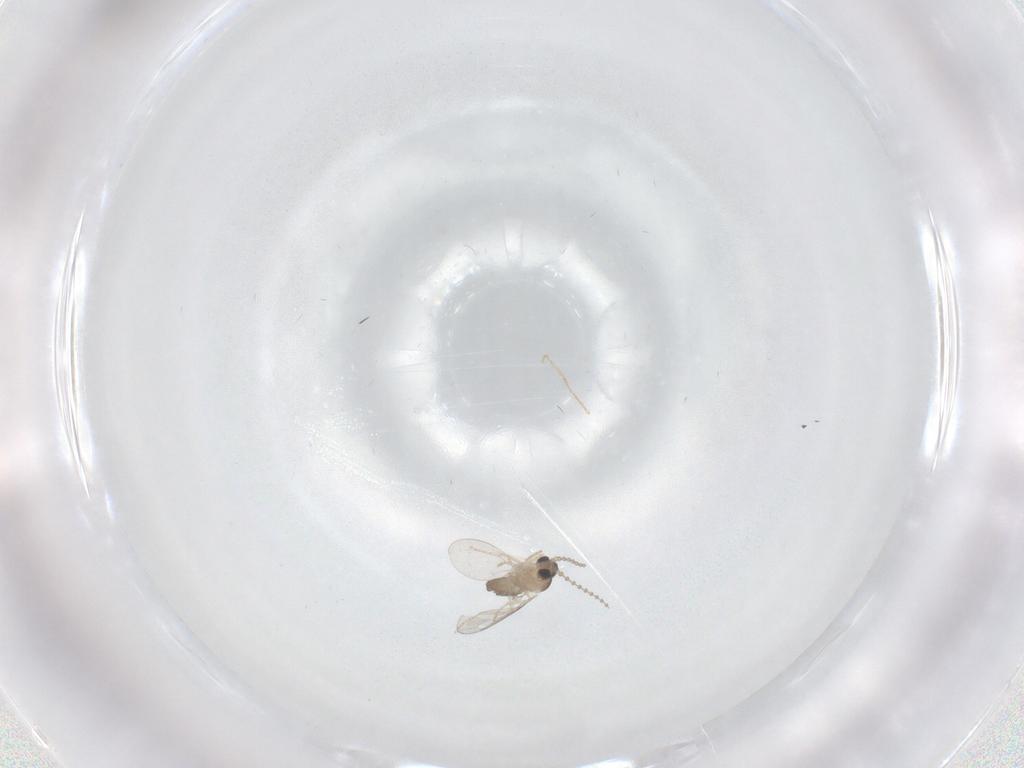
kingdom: Animalia
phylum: Arthropoda
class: Insecta
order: Diptera
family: Cecidomyiidae
